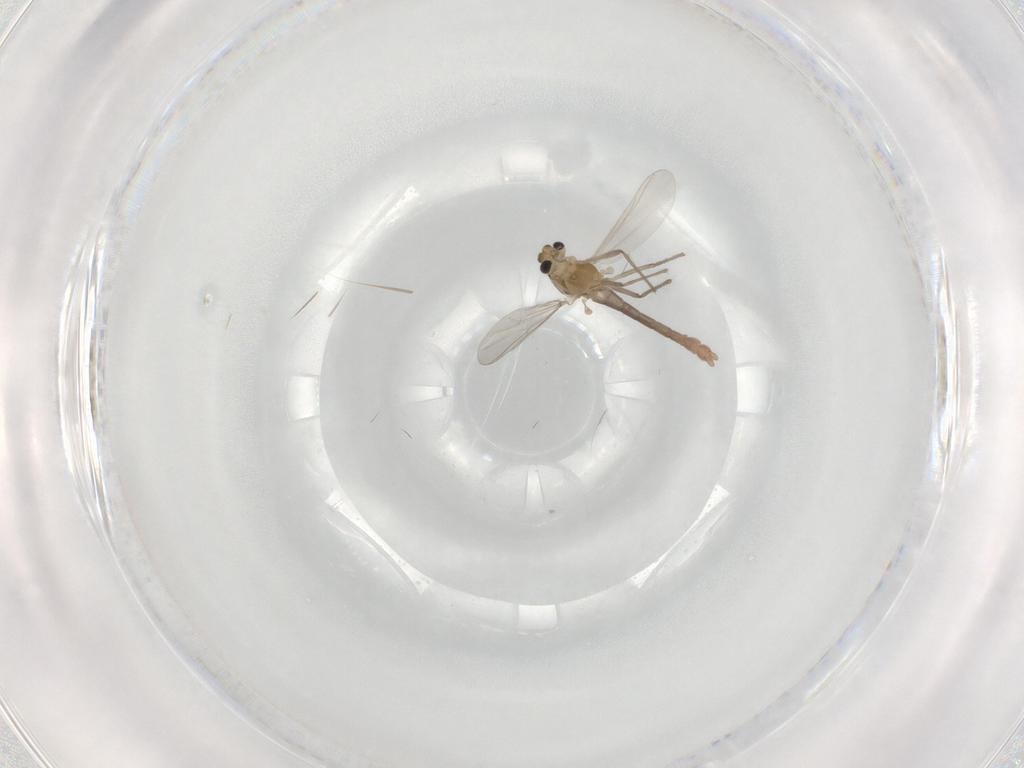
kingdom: Animalia
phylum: Arthropoda
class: Insecta
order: Diptera
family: Chironomidae
